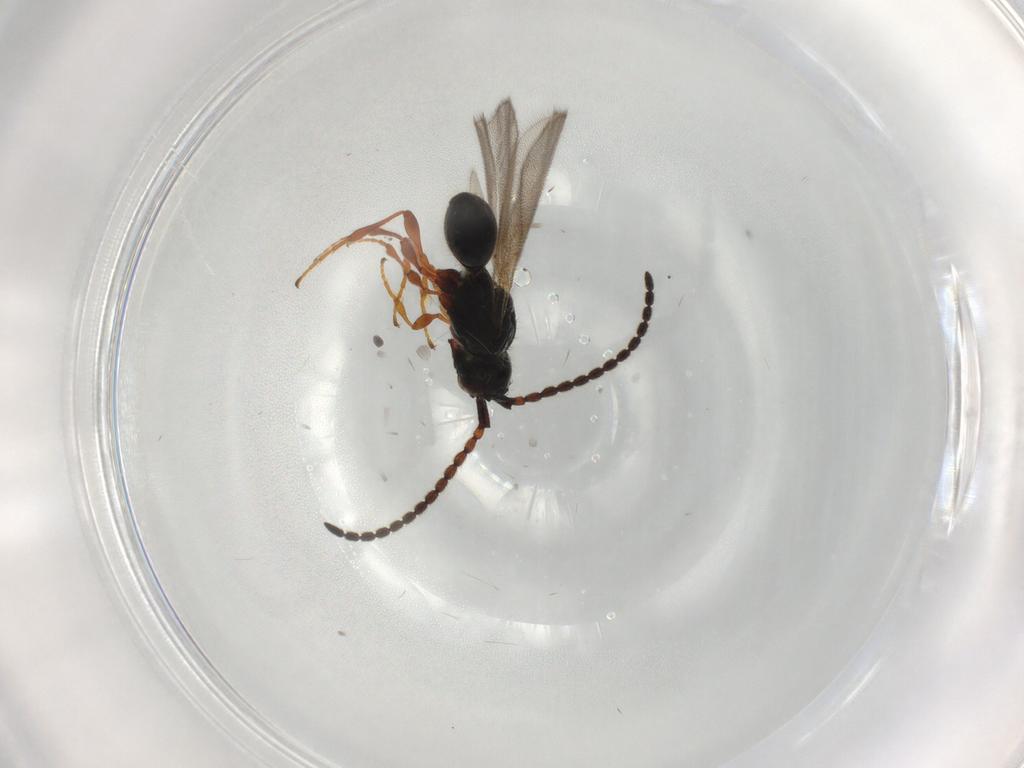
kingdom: Animalia
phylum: Arthropoda
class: Insecta
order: Hymenoptera
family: Diapriidae
